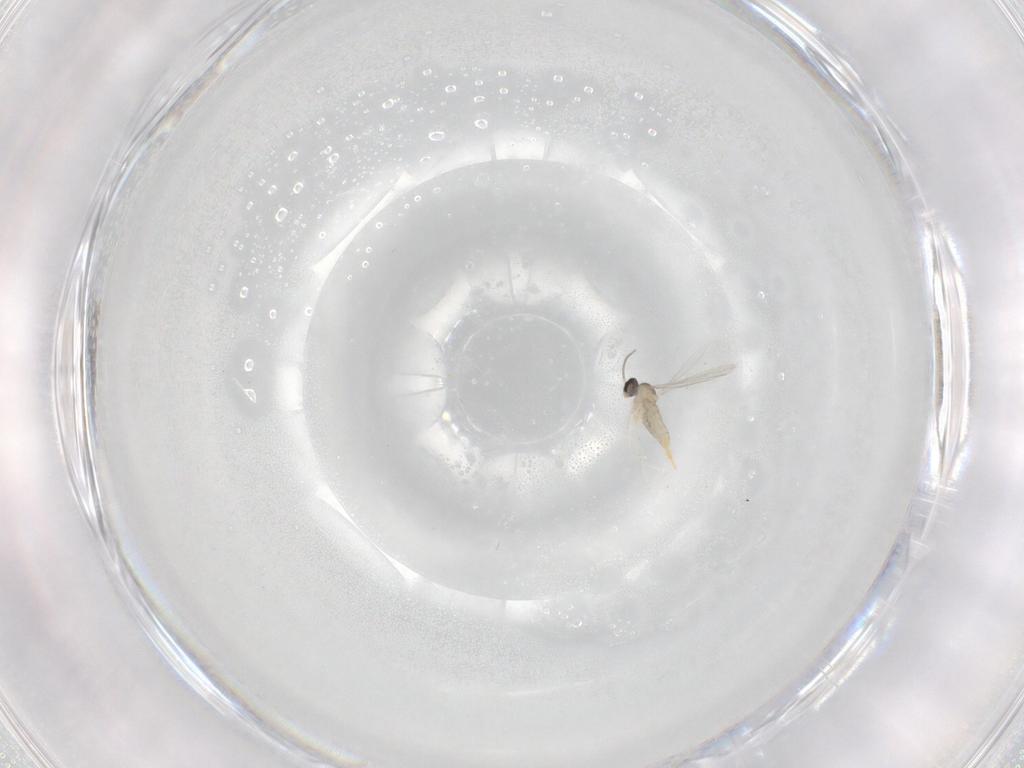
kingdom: Animalia
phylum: Arthropoda
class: Insecta
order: Diptera
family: Cecidomyiidae
